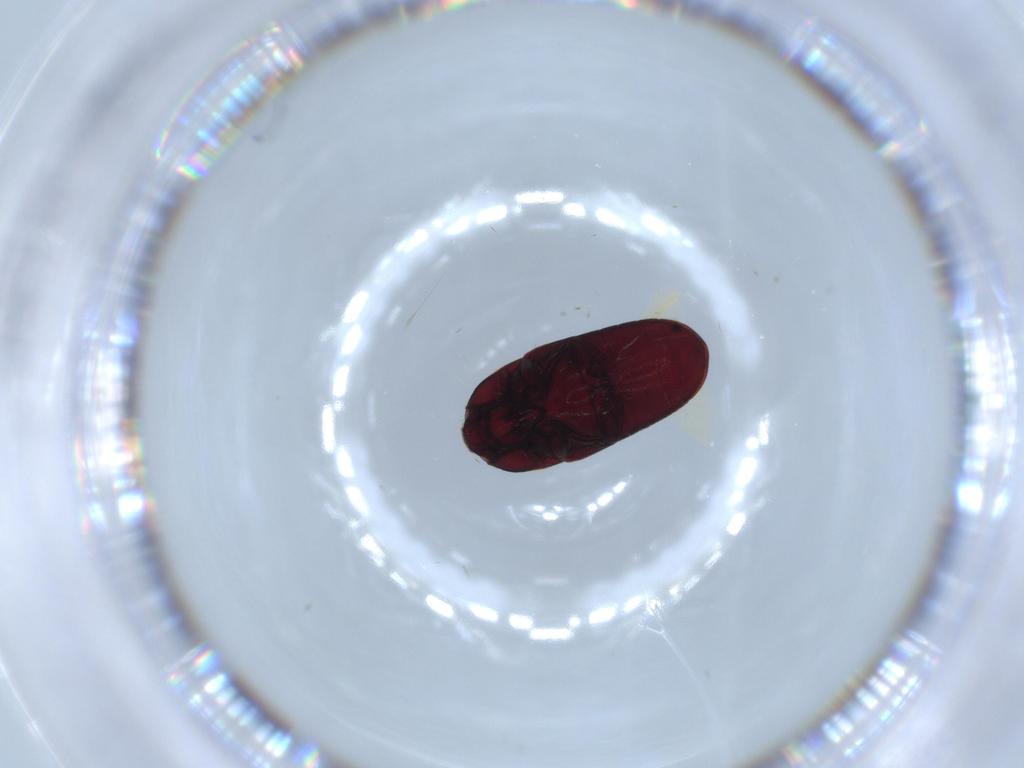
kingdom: Animalia
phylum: Arthropoda
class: Insecta
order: Coleoptera
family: Throscidae
